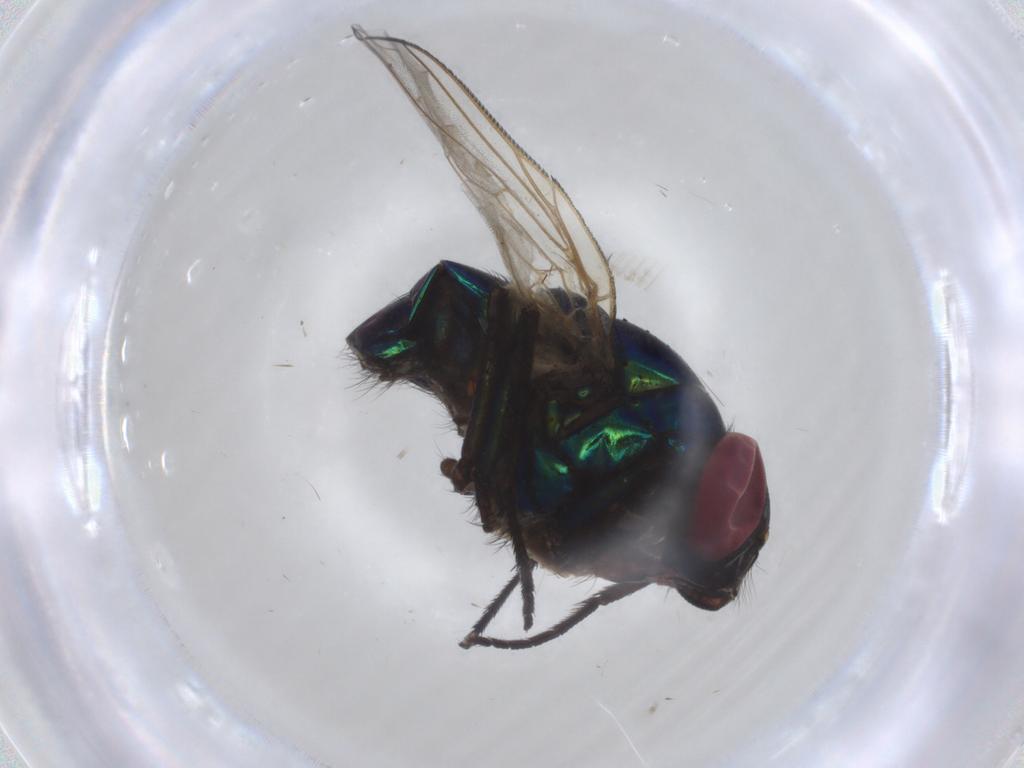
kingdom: Animalia
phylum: Arthropoda
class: Insecta
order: Diptera
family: Muscidae
